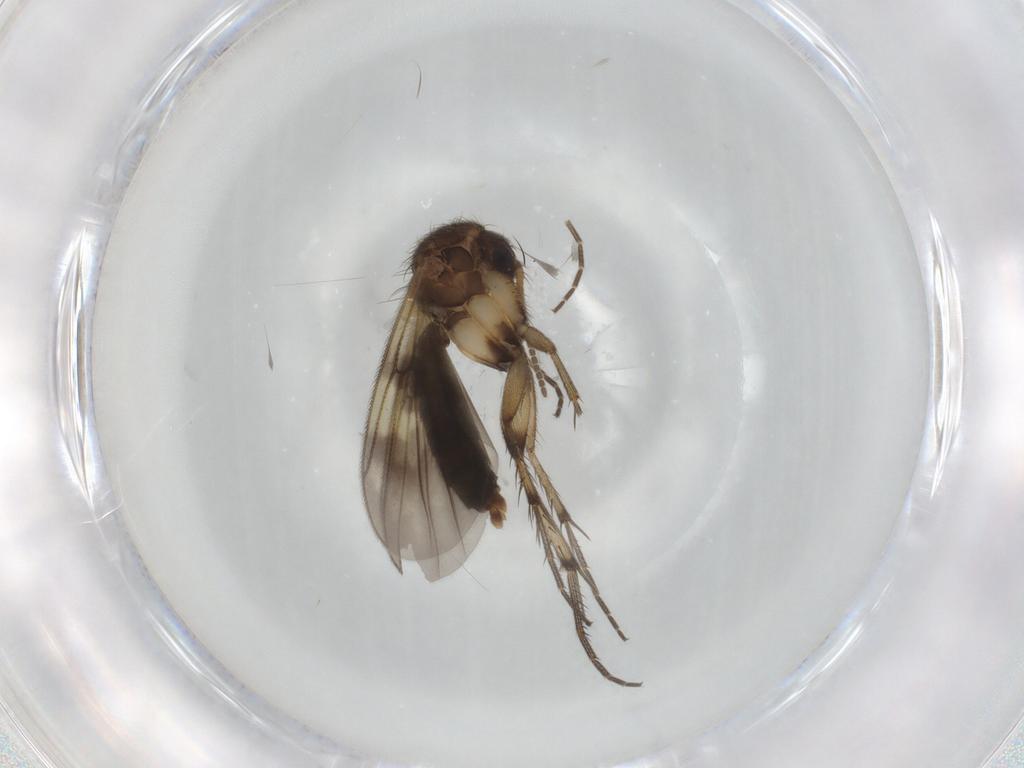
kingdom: Animalia
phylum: Arthropoda
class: Insecta
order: Diptera
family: Mycetophilidae
